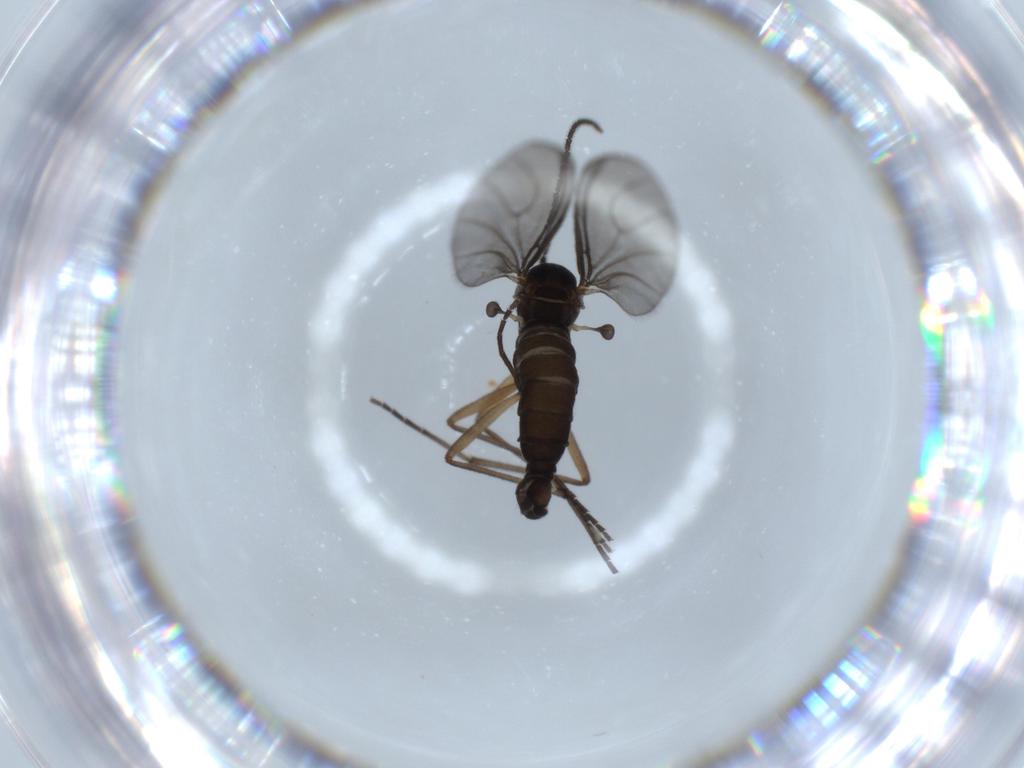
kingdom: Animalia
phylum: Arthropoda
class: Insecta
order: Diptera
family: Sciaridae
